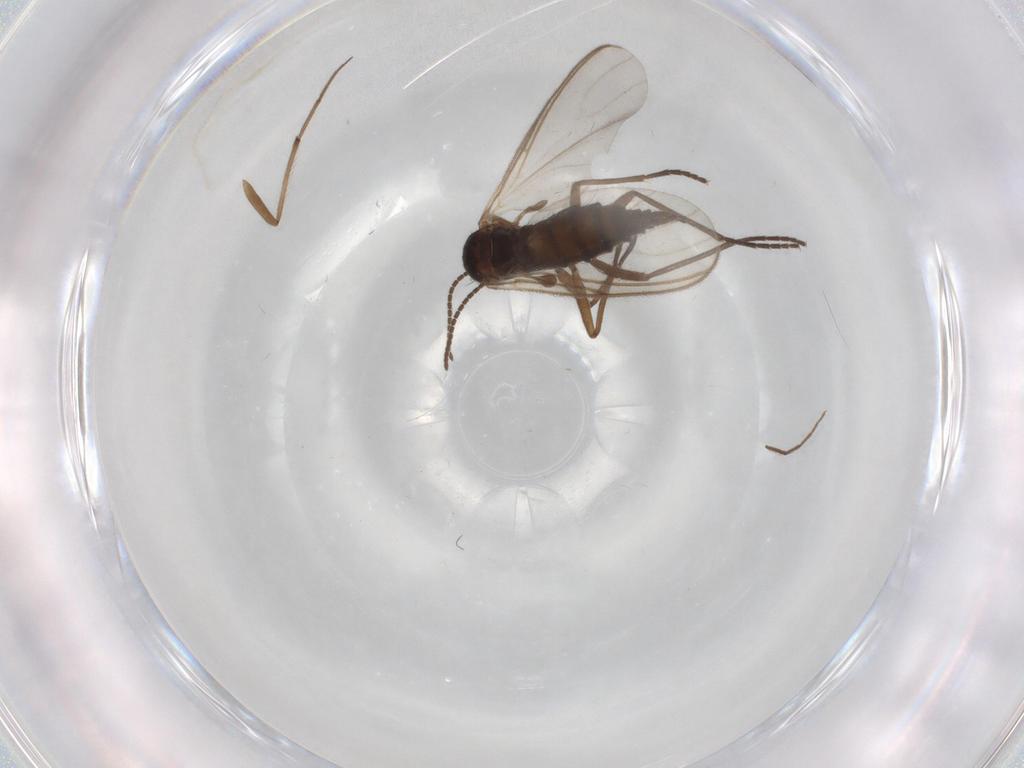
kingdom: Animalia
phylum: Arthropoda
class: Insecta
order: Diptera
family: Sciaridae
